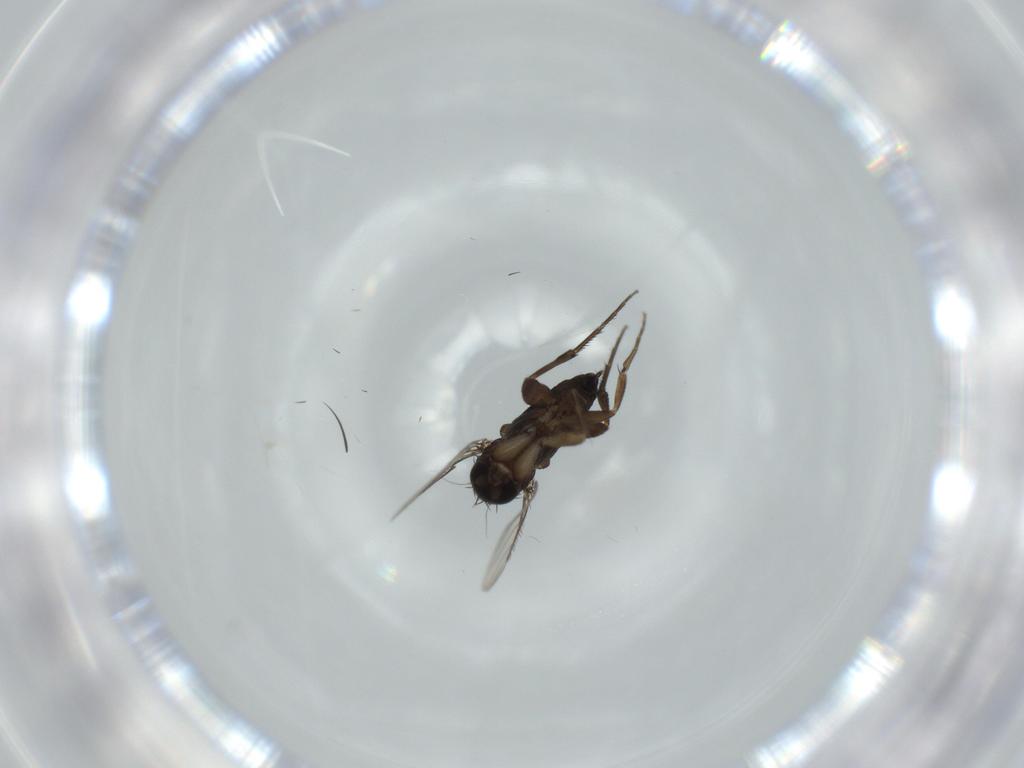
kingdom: Animalia
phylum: Arthropoda
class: Insecta
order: Diptera
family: Phoridae
